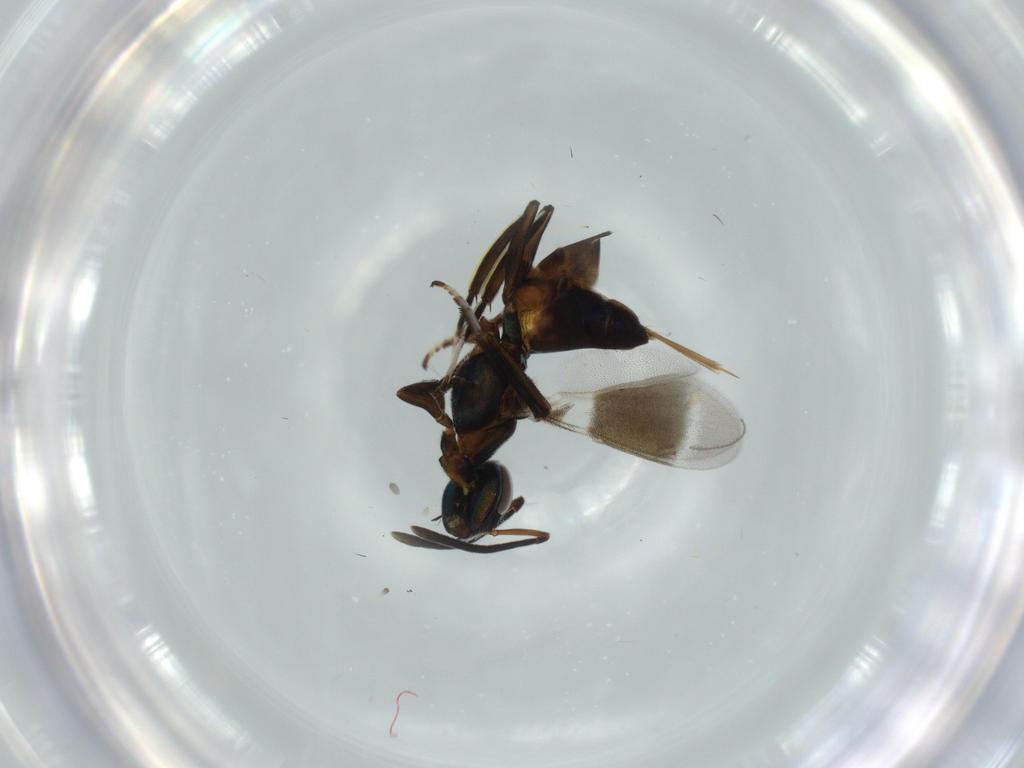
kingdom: Animalia
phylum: Arthropoda
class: Insecta
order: Hymenoptera
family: Eupelmidae
